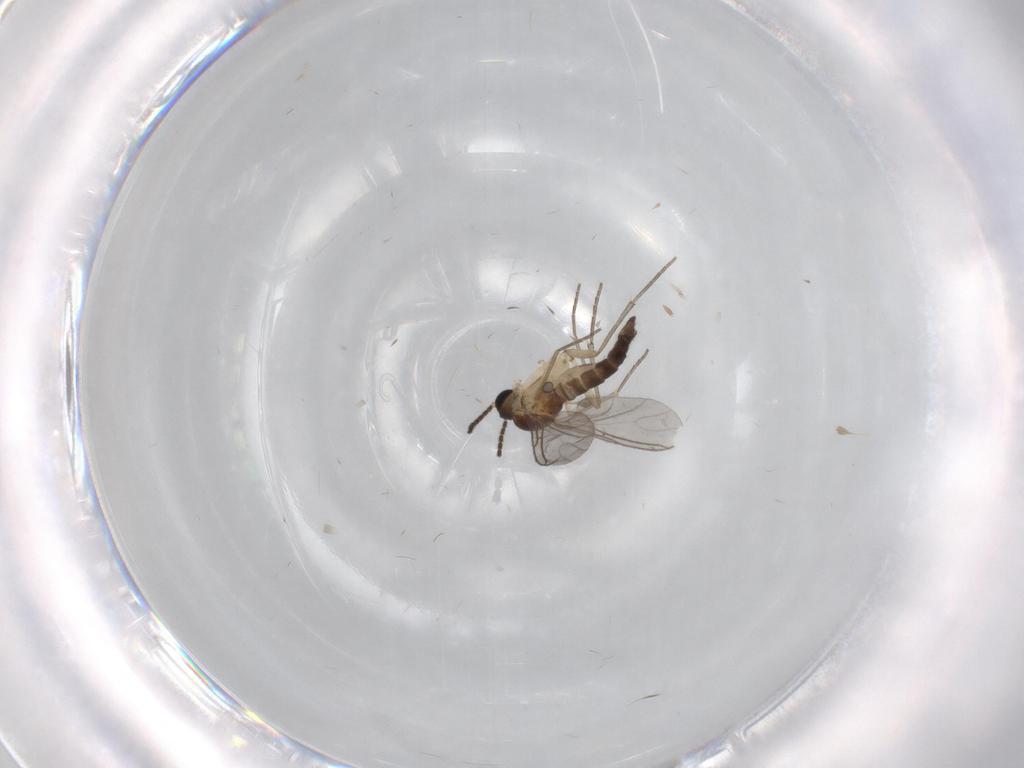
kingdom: Animalia
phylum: Arthropoda
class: Insecta
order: Diptera
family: Sciaridae
